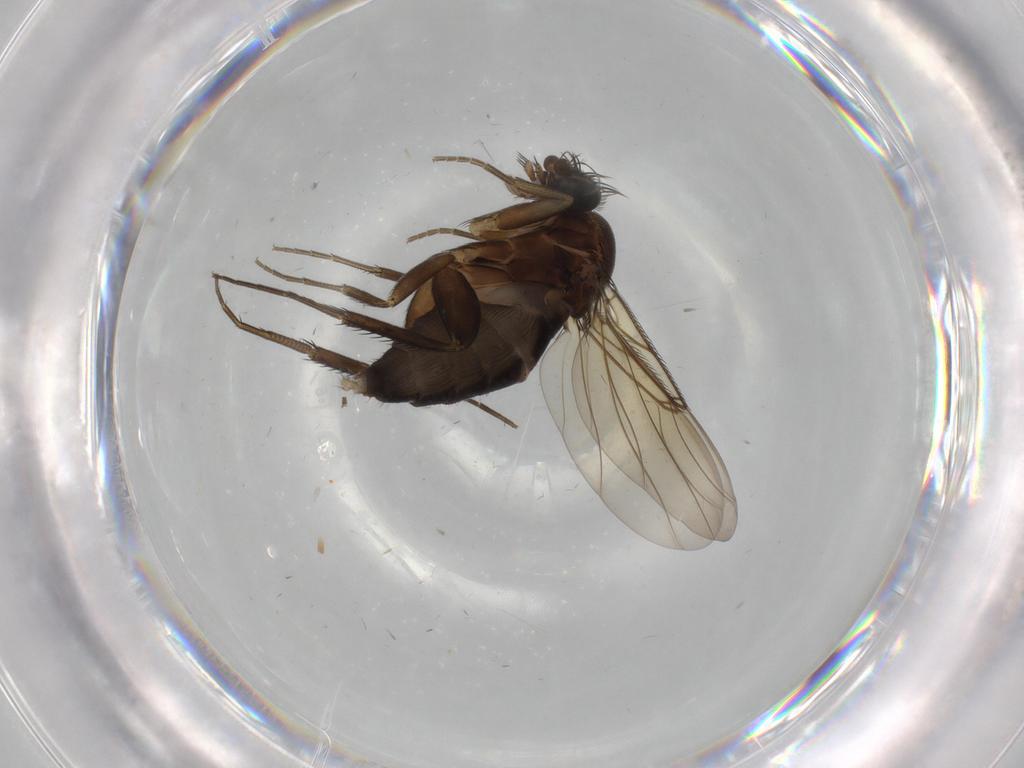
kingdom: Animalia
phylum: Arthropoda
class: Insecta
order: Diptera
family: Phoridae
